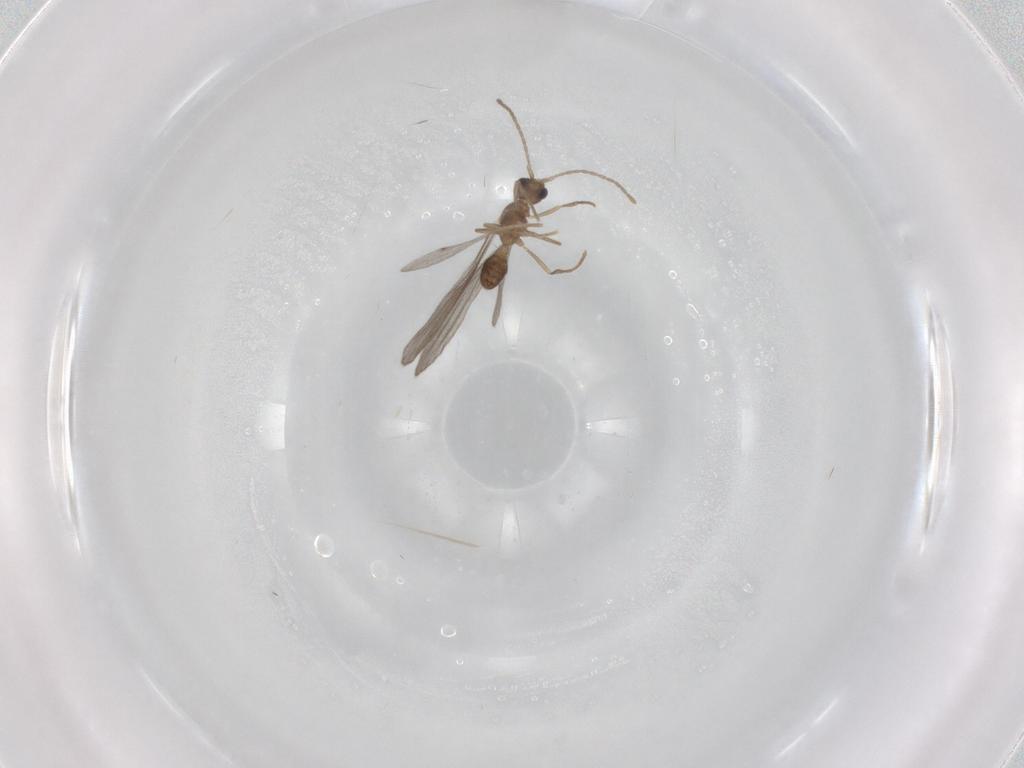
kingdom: Animalia
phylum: Arthropoda
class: Insecta
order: Hymenoptera
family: Formicidae
